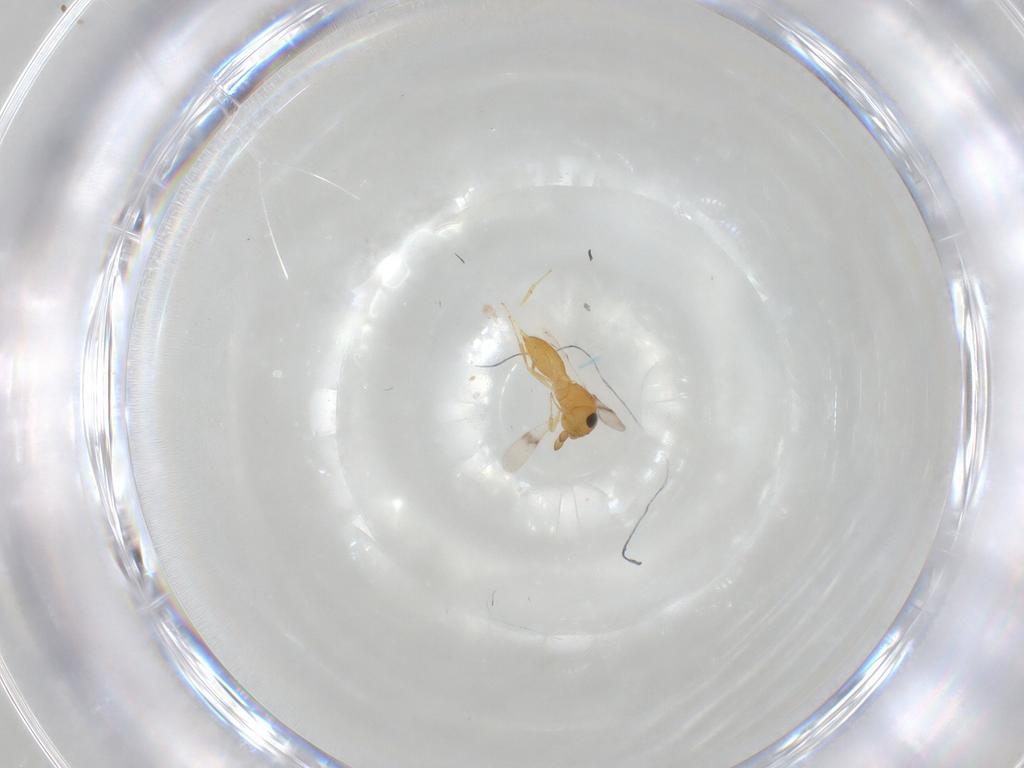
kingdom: Animalia
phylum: Arthropoda
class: Insecta
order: Hymenoptera
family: Scelionidae
